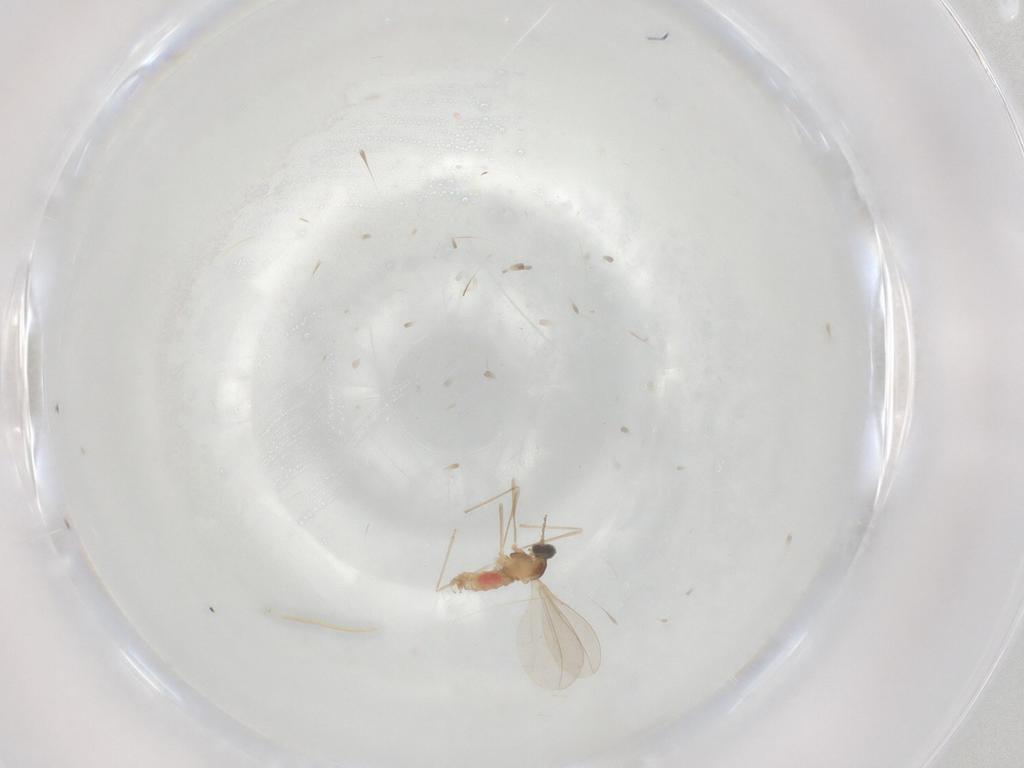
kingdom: Animalia
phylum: Arthropoda
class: Insecta
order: Diptera
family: Cecidomyiidae
